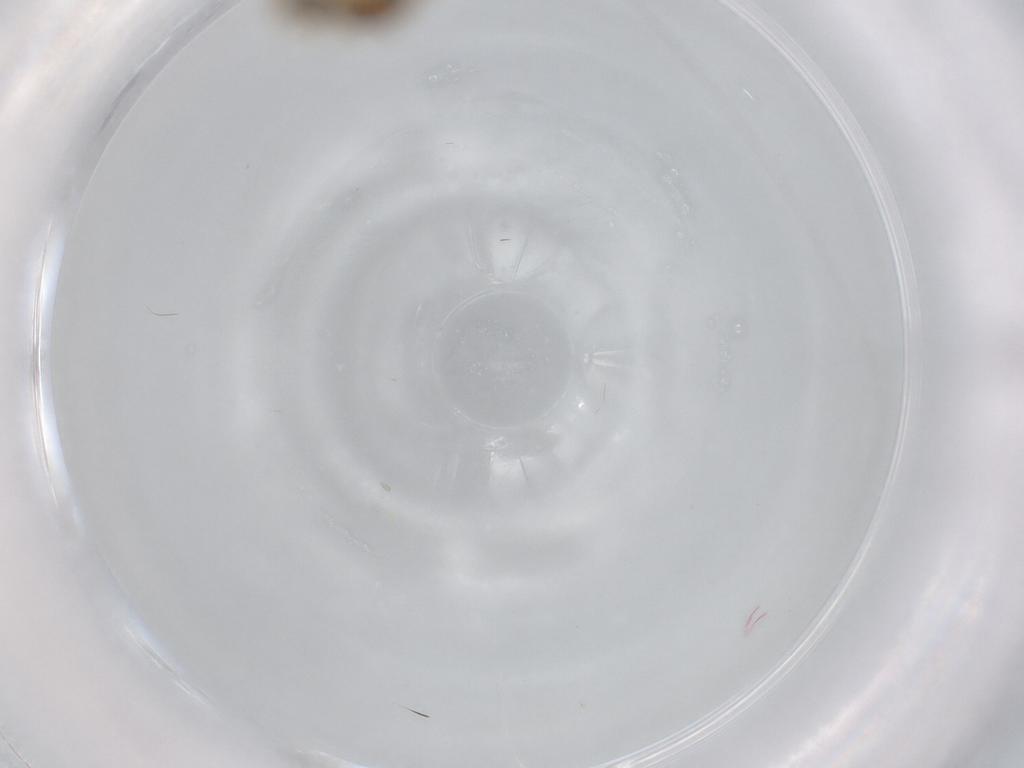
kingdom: Animalia
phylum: Arthropoda
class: Insecta
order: Diptera
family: Ceratopogonidae
